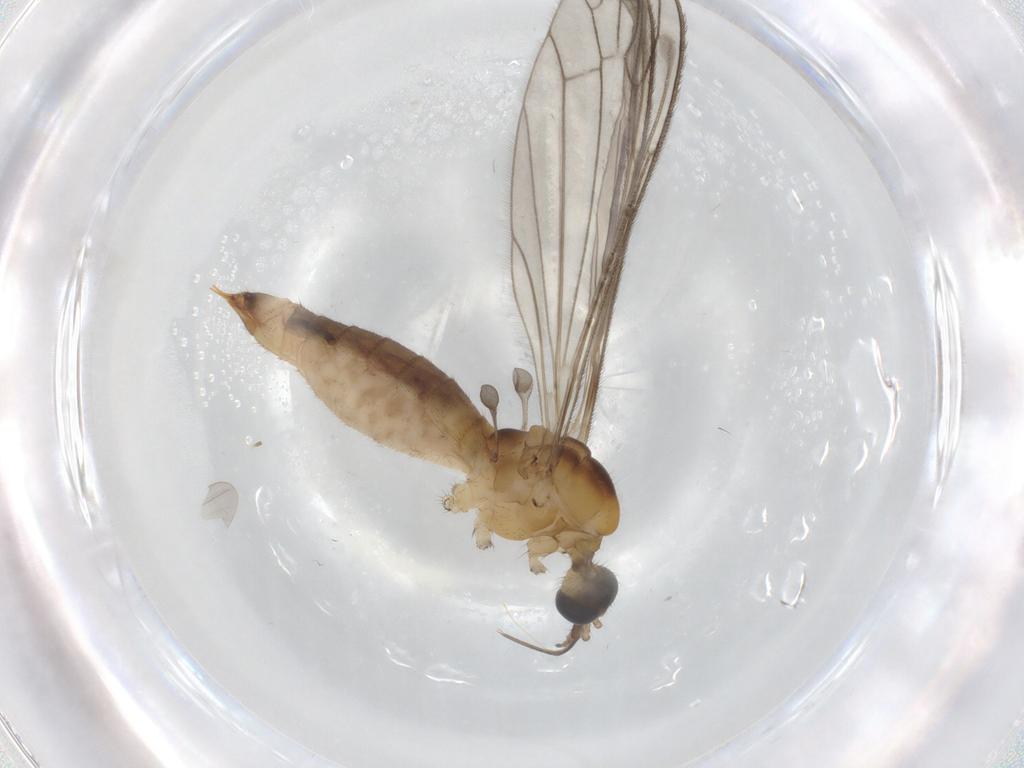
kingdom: Animalia
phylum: Arthropoda
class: Insecta
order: Diptera
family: Limoniidae
